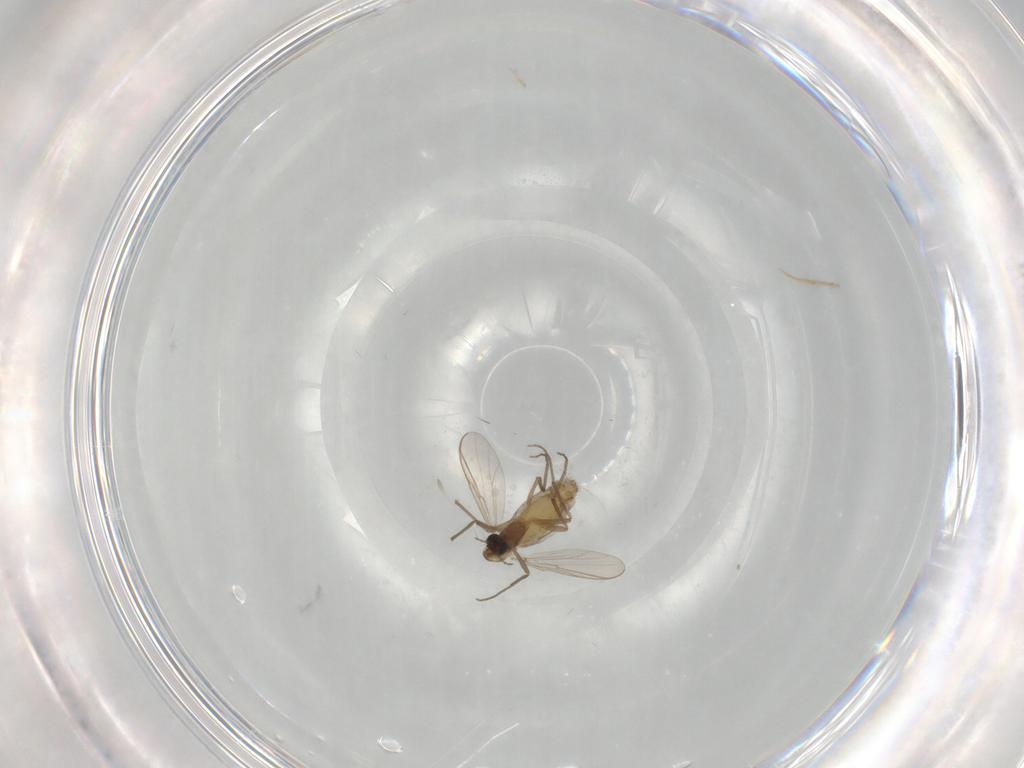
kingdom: Animalia
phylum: Arthropoda
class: Insecta
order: Diptera
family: Chironomidae
